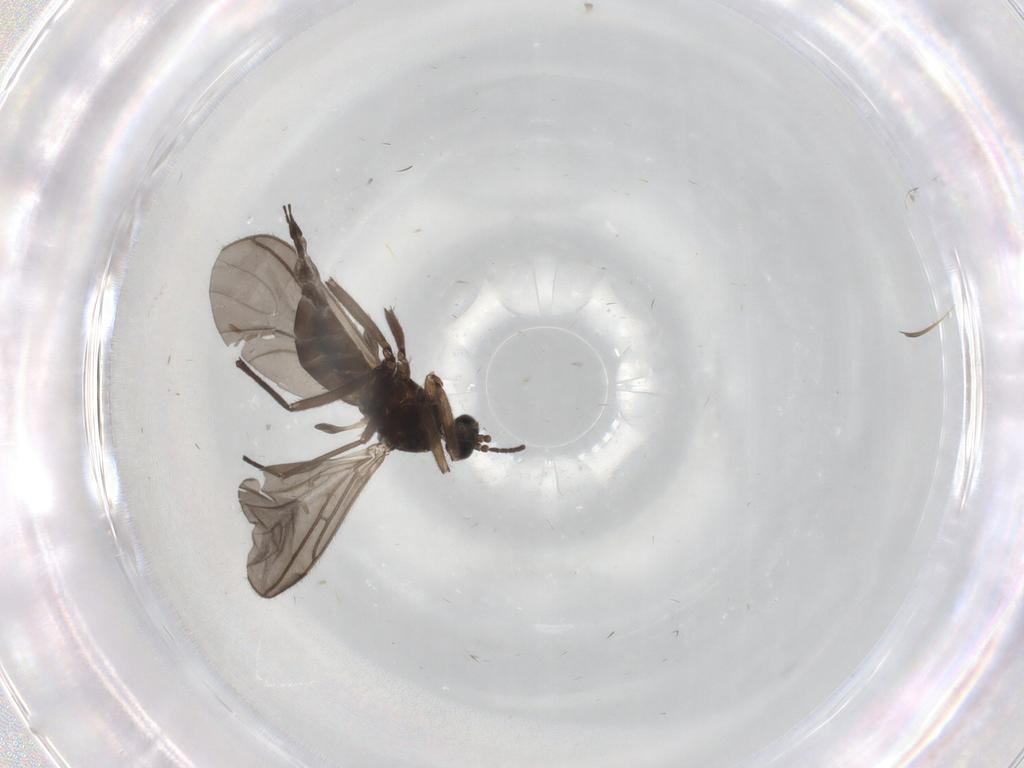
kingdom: Animalia
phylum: Arthropoda
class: Insecta
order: Diptera
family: Sciaridae
